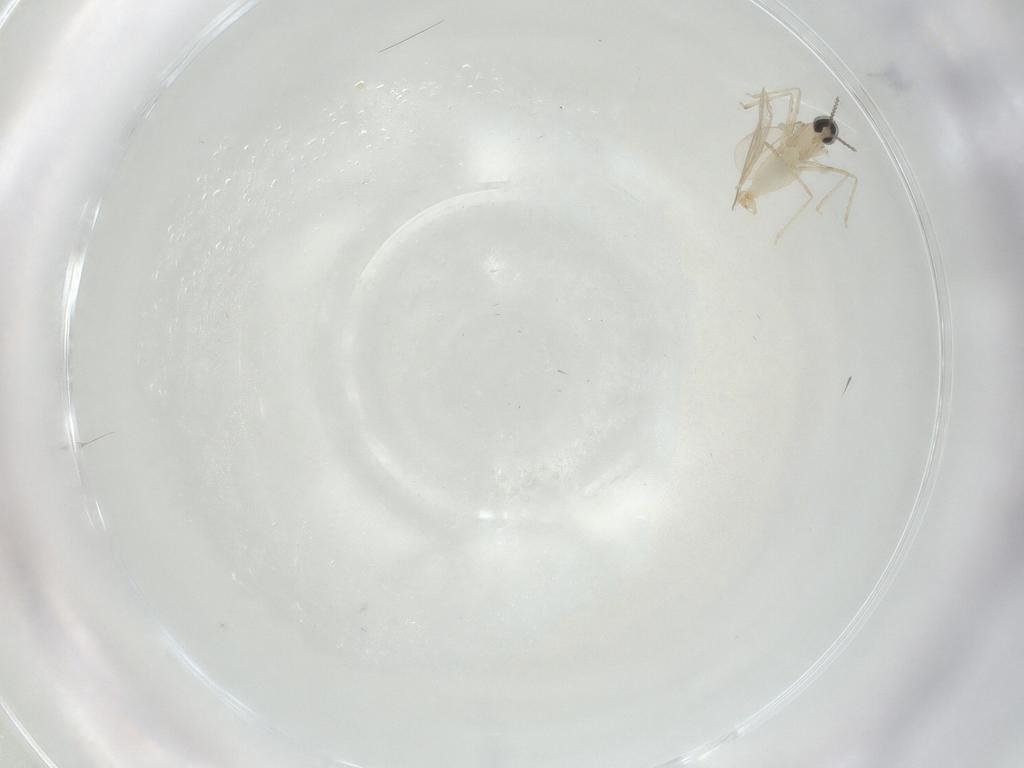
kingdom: Animalia
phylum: Arthropoda
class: Insecta
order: Diptera
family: Cecidomyiidae
